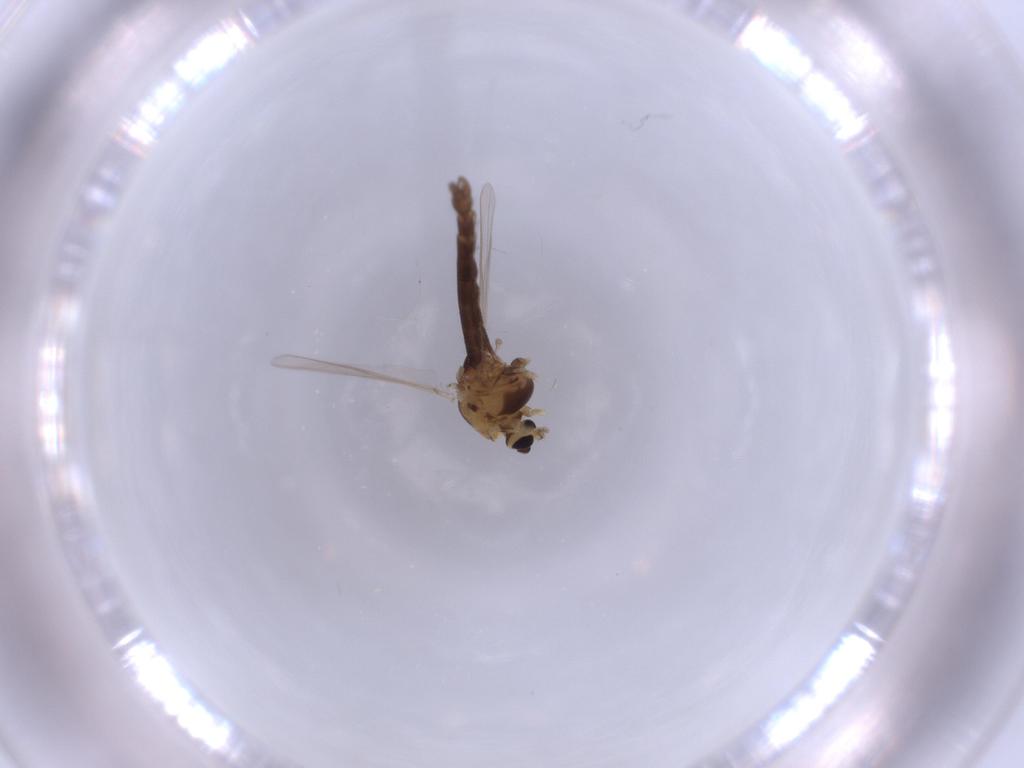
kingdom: Animalia
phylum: Arthropoda
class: Insecta
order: Diptera
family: Chironomidae
